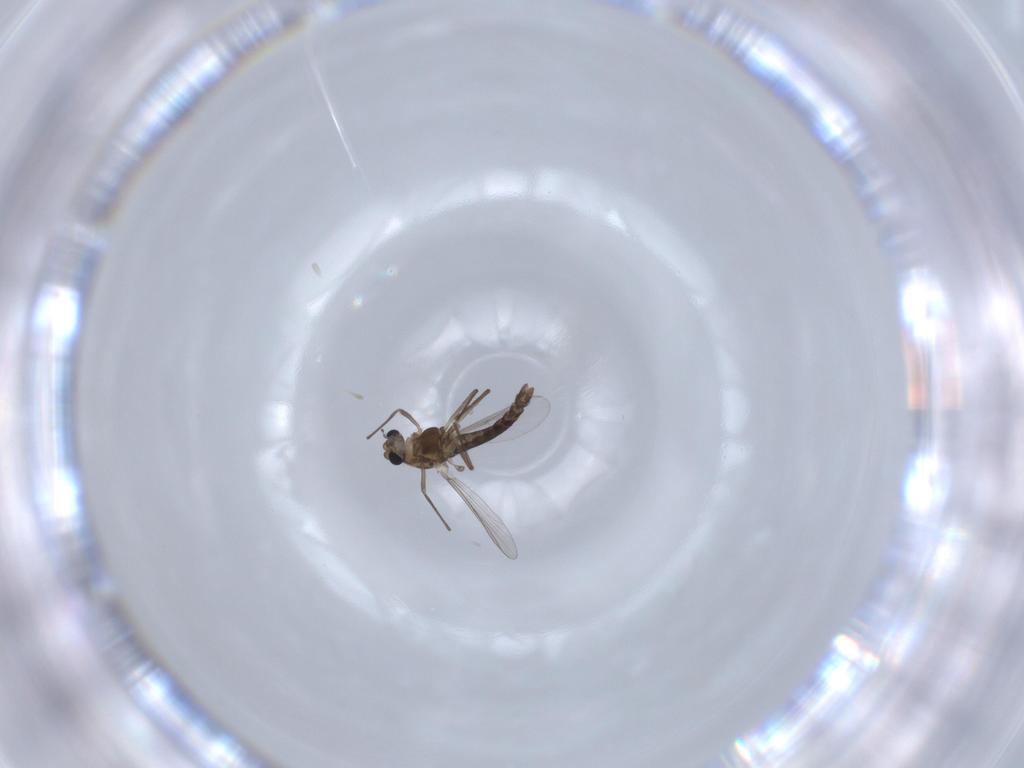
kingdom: Animalia
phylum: Arthropoda
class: Insecta
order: Diptera
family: Chironomidae
